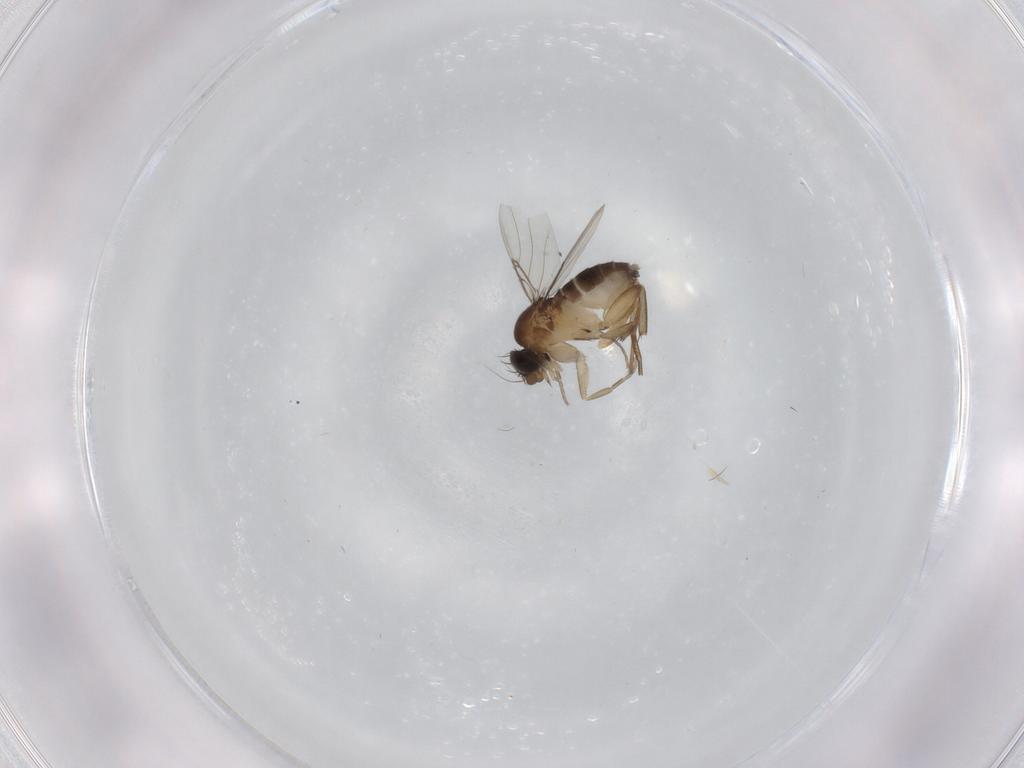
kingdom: Animalia
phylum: Arthropoda
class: Insecta
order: Diptera
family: Phoridae
